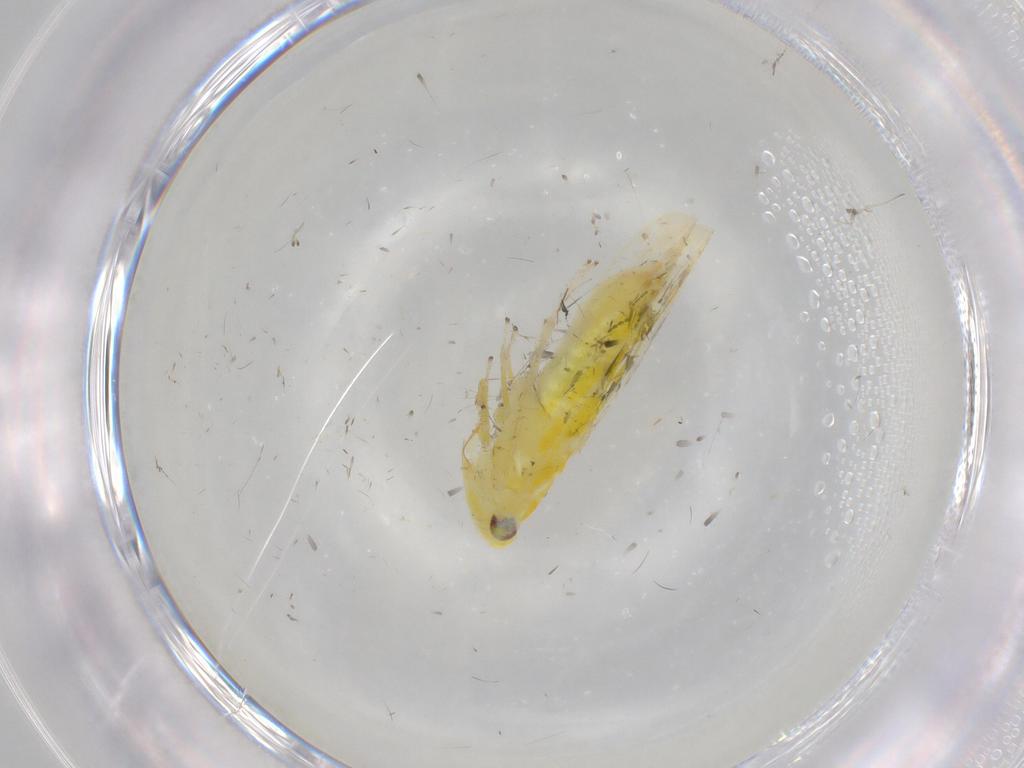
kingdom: Animalia
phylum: Arthropoda
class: Insecta
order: Hemiptera
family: Cicadellidae
